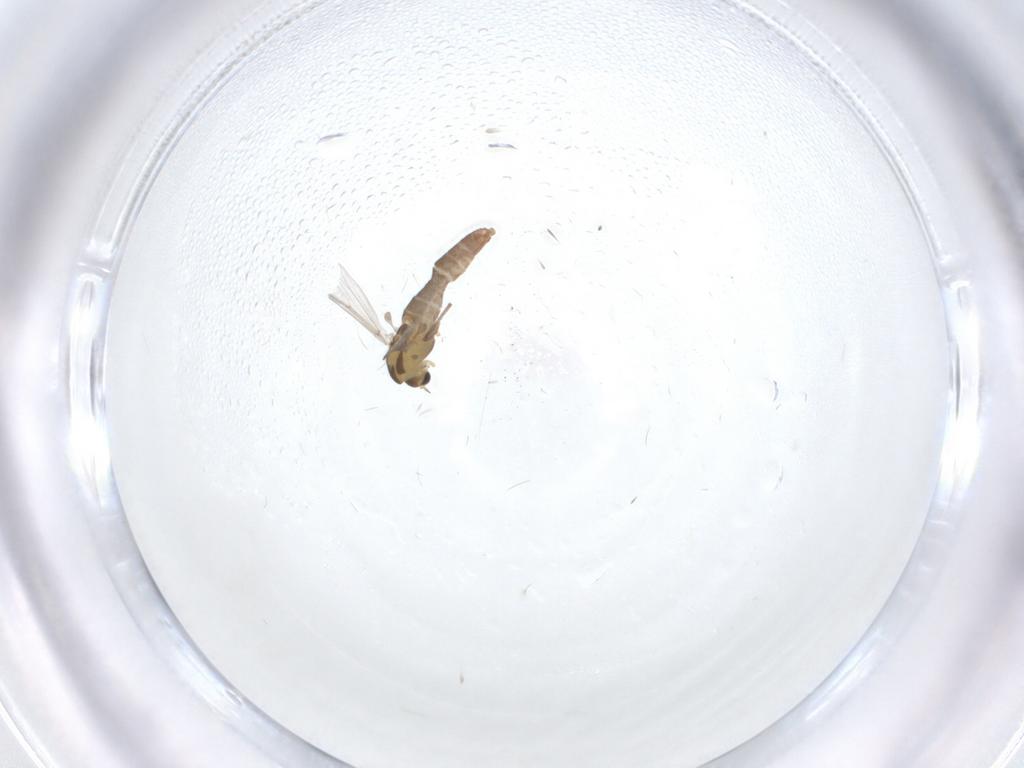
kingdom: Animalia
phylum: Arthropoda
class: Insecta
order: Diptera
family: Chironomidae
